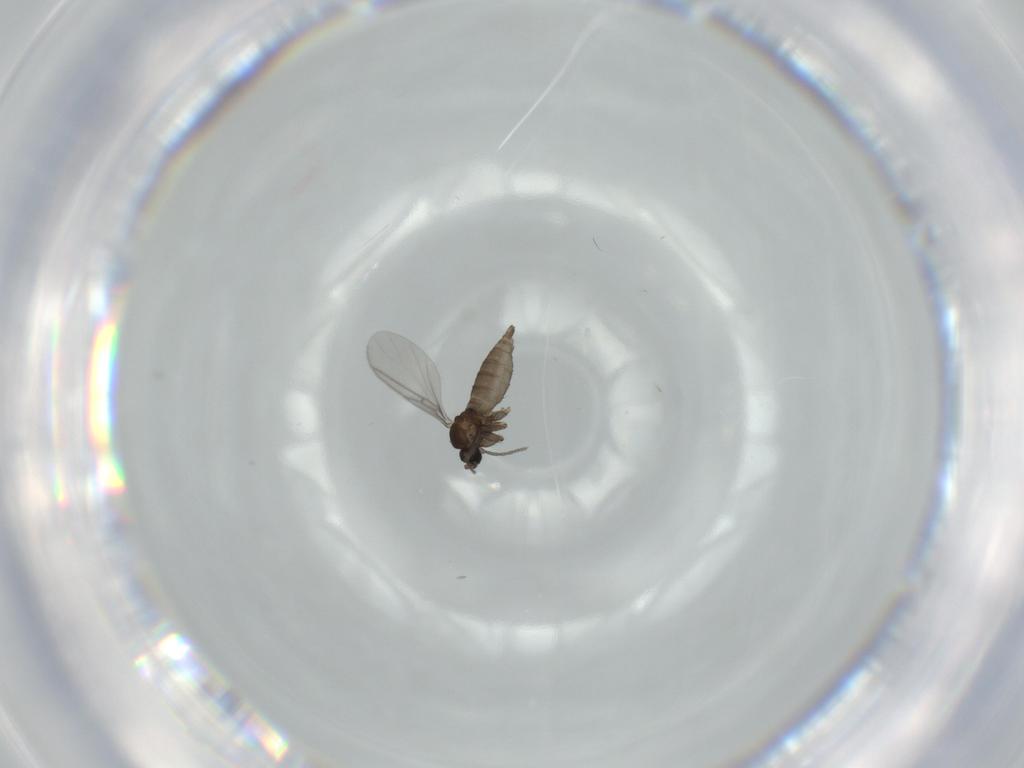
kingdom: Animalia
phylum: Arthropoda
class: Insecta
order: Diptera
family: Sciaridae
